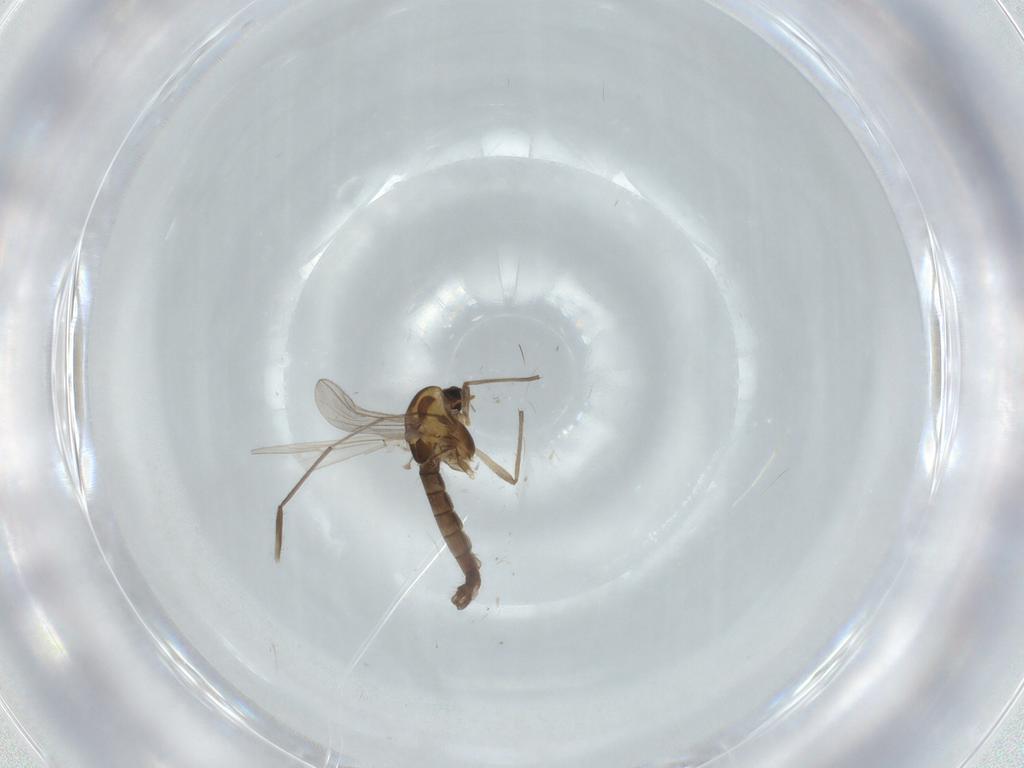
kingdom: Animalia
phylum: Arthropoda
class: Insecta
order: Diptera
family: Chironomidae
